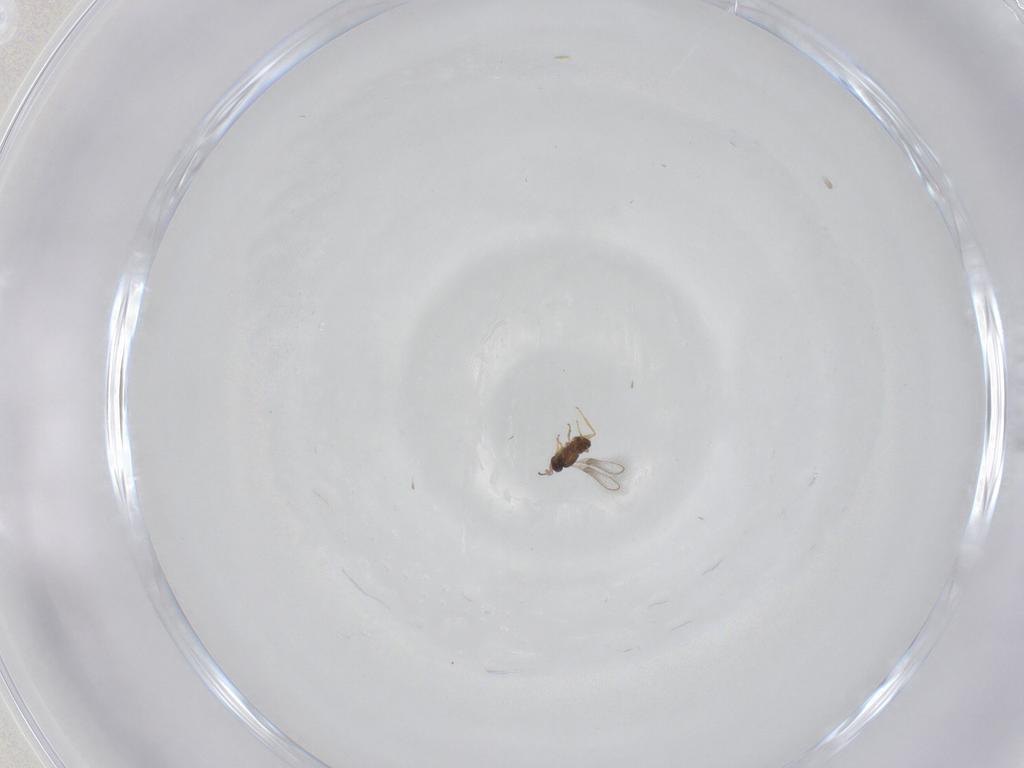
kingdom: Animalia
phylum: Arthropoda
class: Insecta
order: Hymenoptera
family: Mymaridae
